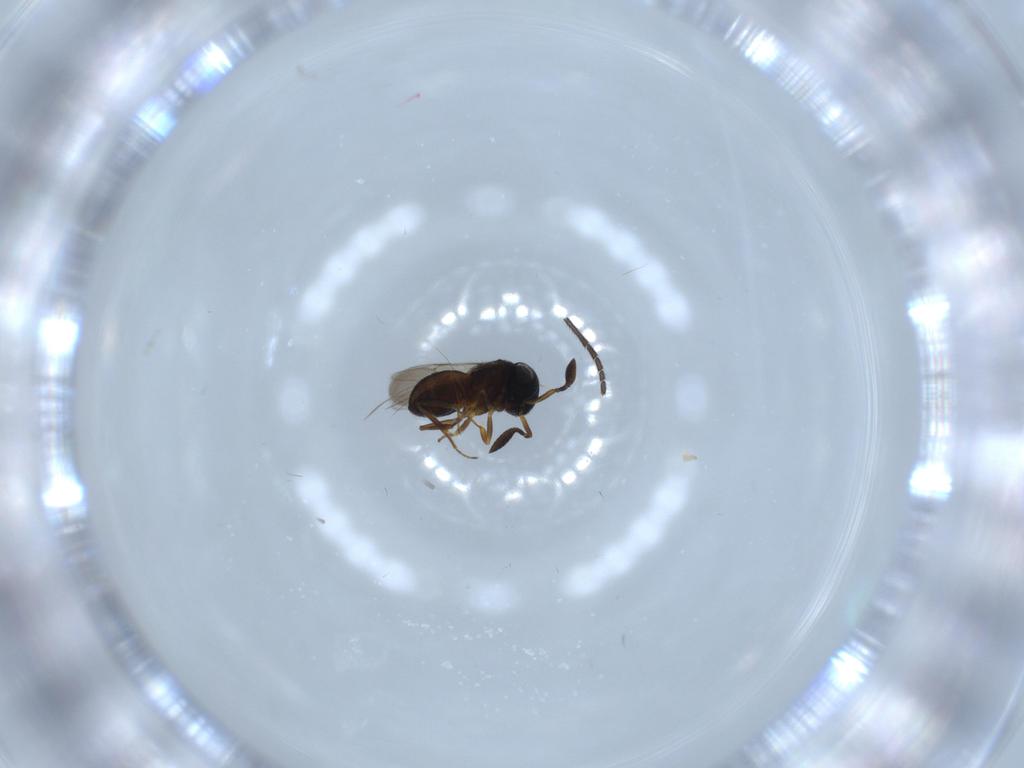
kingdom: Animalia
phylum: Arthropoda
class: Insecta
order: Hymenoptera
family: Scelionidae
